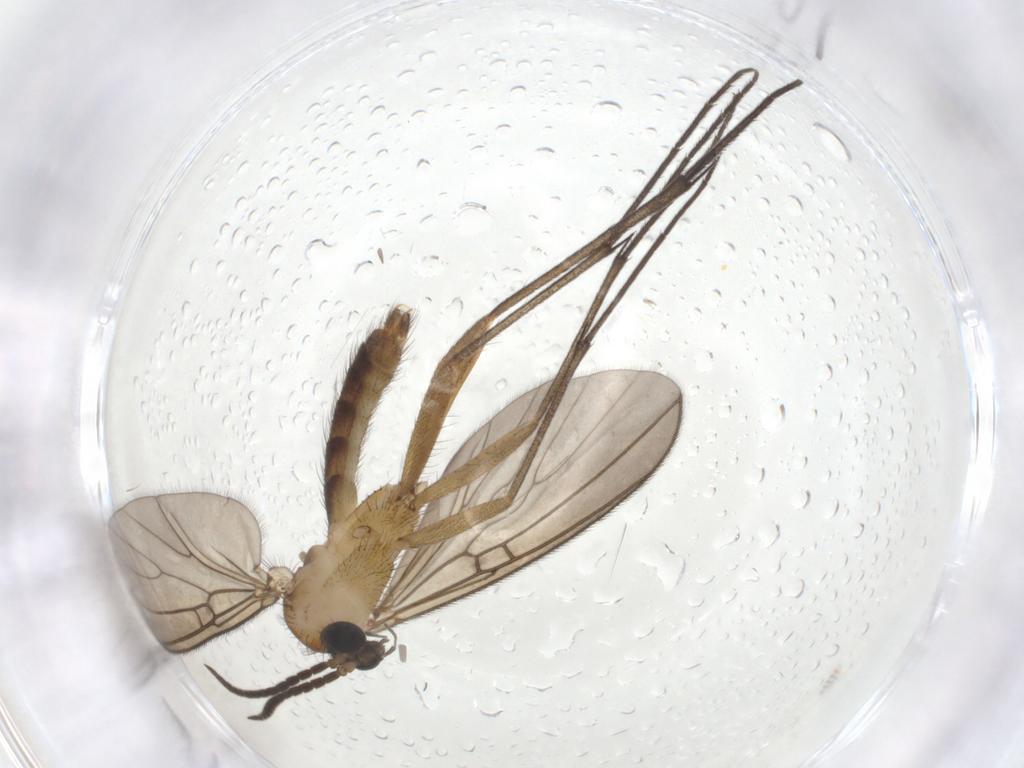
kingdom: Animalia
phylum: Arthropoda
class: Insecta
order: Diptera
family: Mycetophilidae
